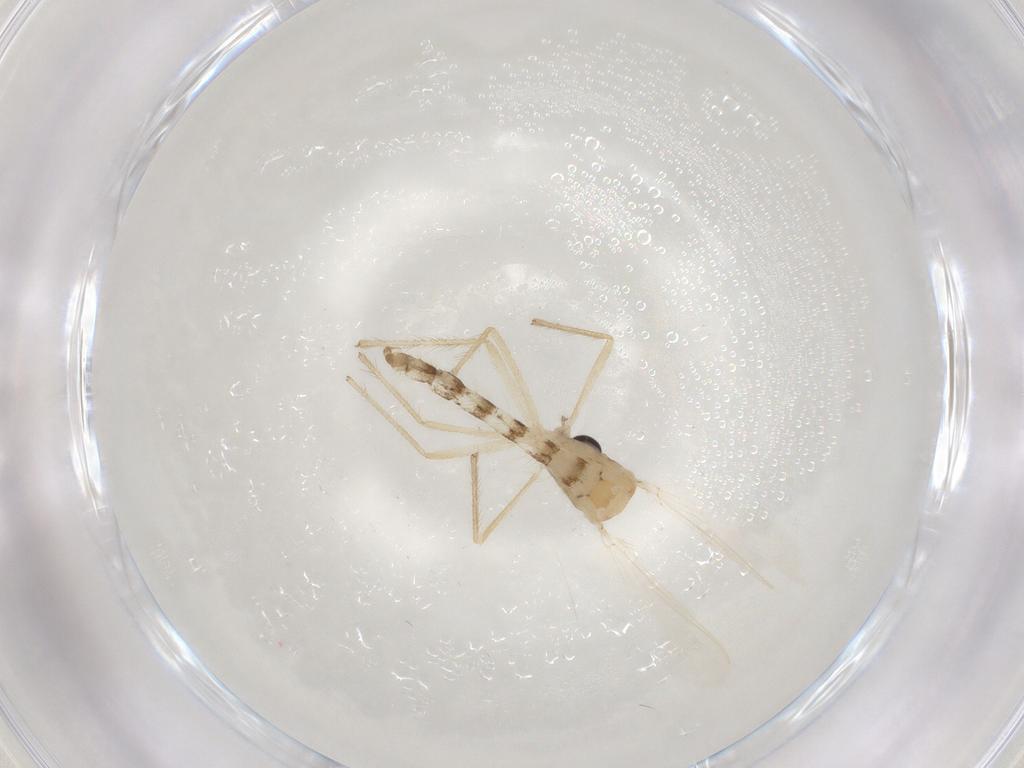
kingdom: Animalia
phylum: Arthropoda
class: Insecta
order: Diptera
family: Chironomidae
